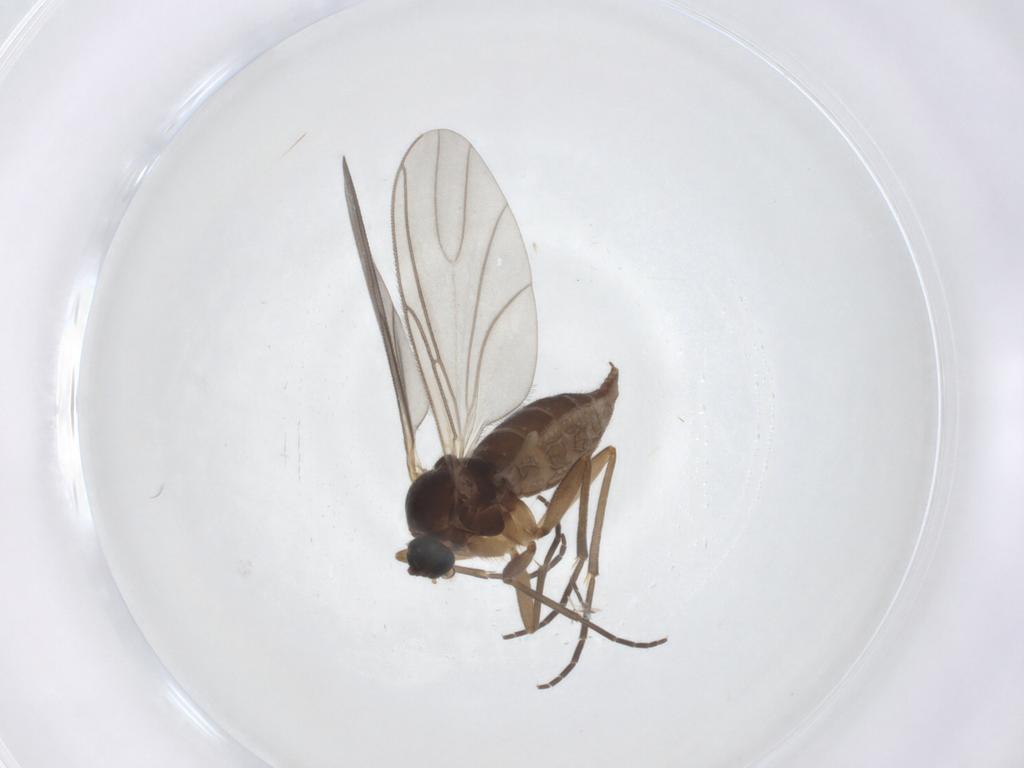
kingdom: Animalia
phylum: Arthropoda
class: Insecta
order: Diptera
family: Sciaridae
